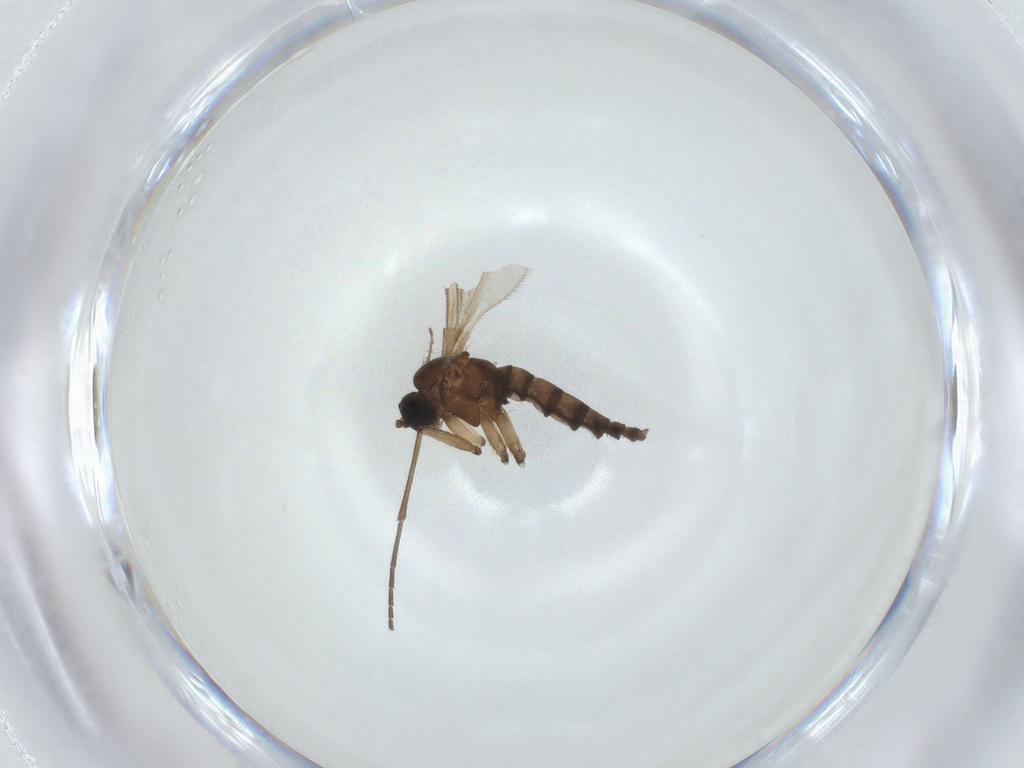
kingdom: Animalia
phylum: Arthropoda
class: Insecta
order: Diptera
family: Sciaridae
